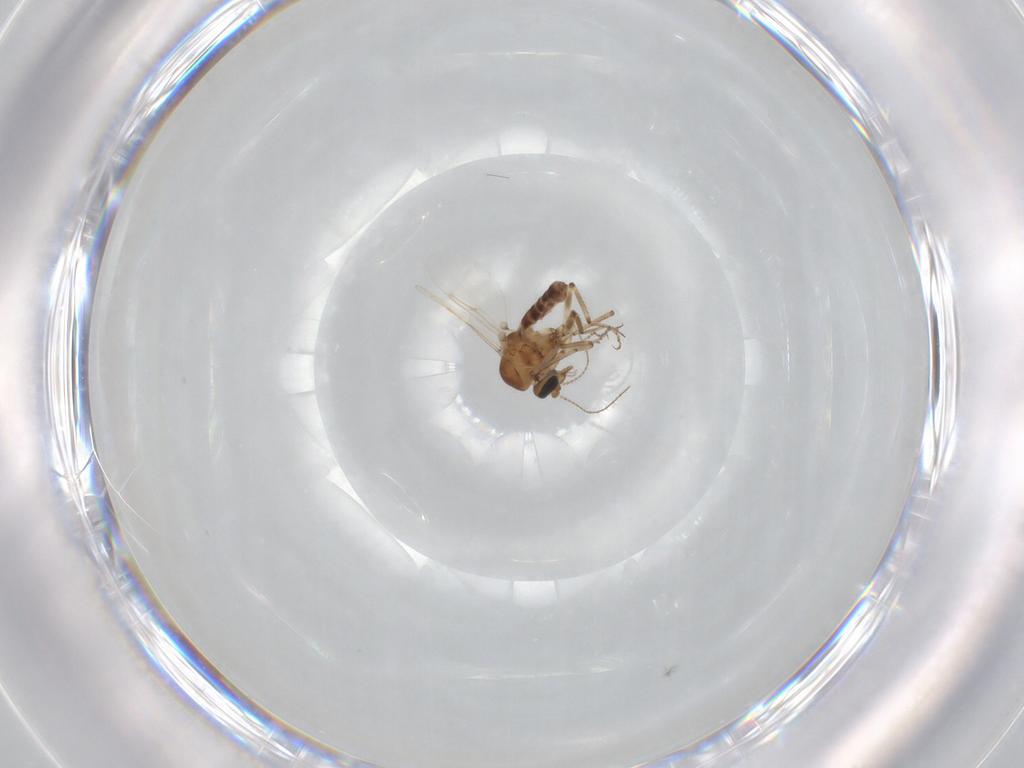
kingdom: Animalia
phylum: Arthropoda
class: Insecta
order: Diptera
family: Ceratopogonidae
